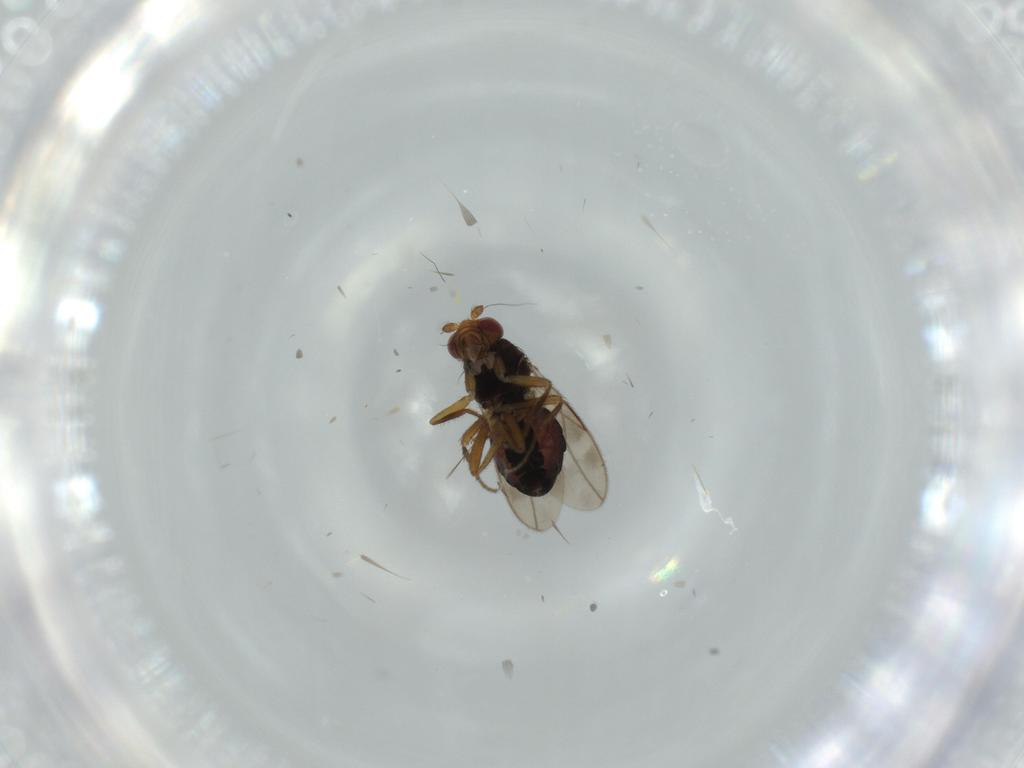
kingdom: Animalia
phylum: Arthropoda
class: Insecta
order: Diptera
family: Sphaeroceridae
